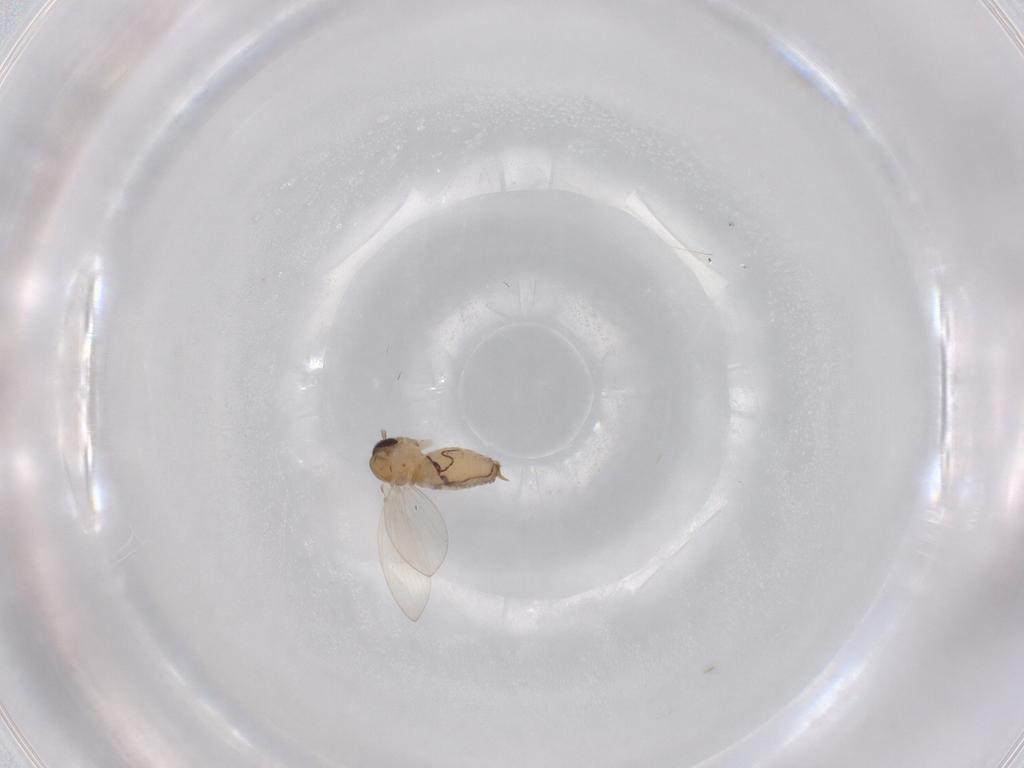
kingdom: Animalia
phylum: Arthropoda
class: Insecta
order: Diptera
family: Psychodidae
